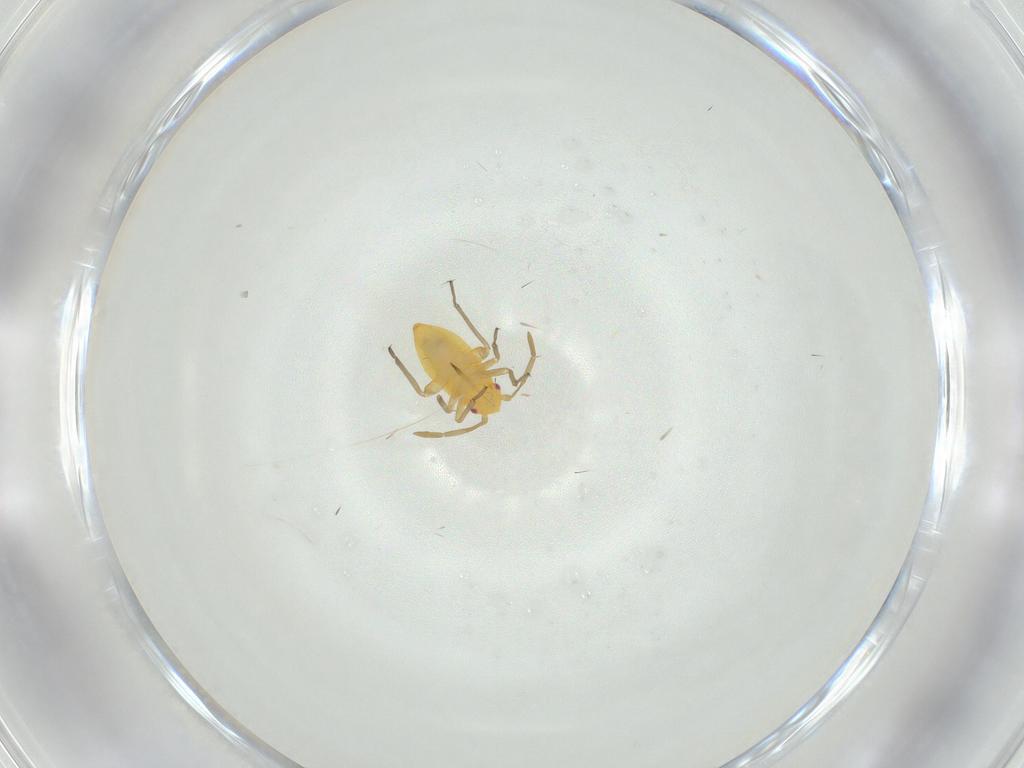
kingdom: Animalia
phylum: Arthropoda
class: Insecta
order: Hemiptera
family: Miridae
